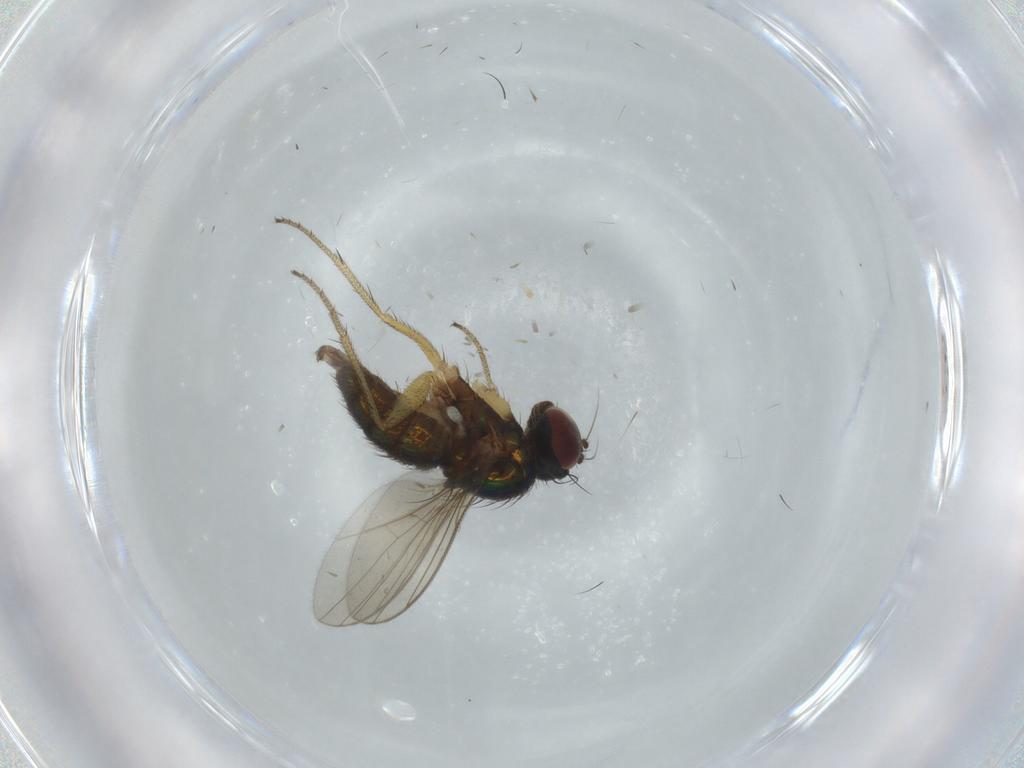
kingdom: Animalia
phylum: Arthropoda
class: Insecta
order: Diptera
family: Dolichopodidae
